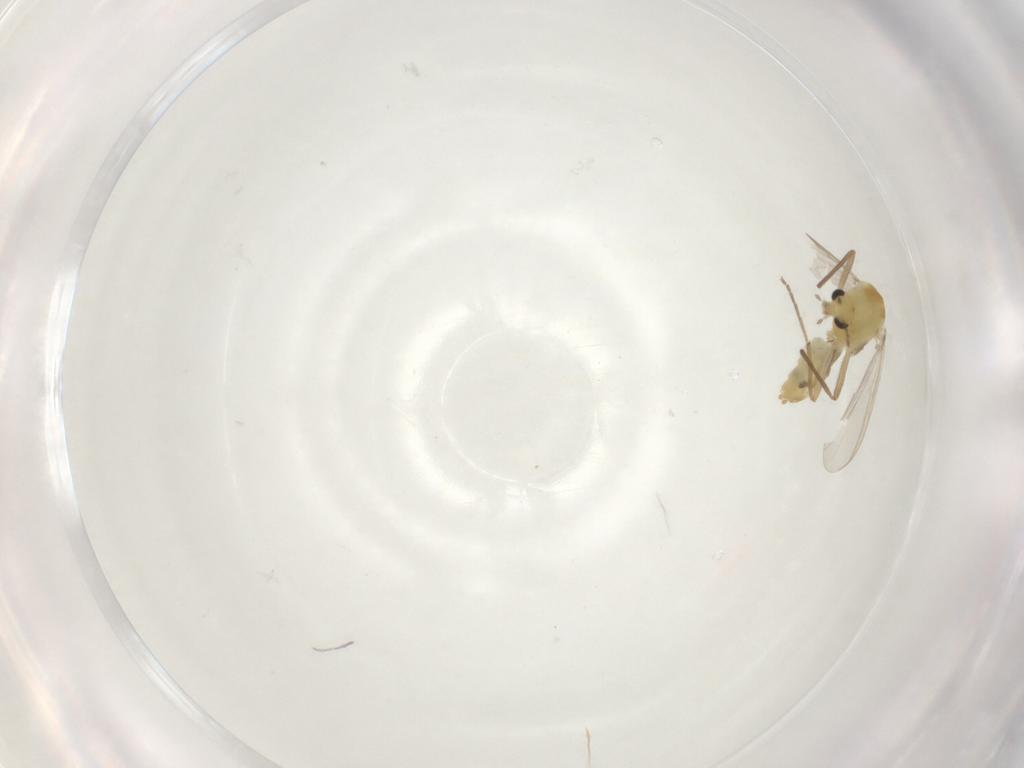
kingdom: Animalia
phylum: Arthropoda
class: Insecta
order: Diptera
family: Chironomidae
